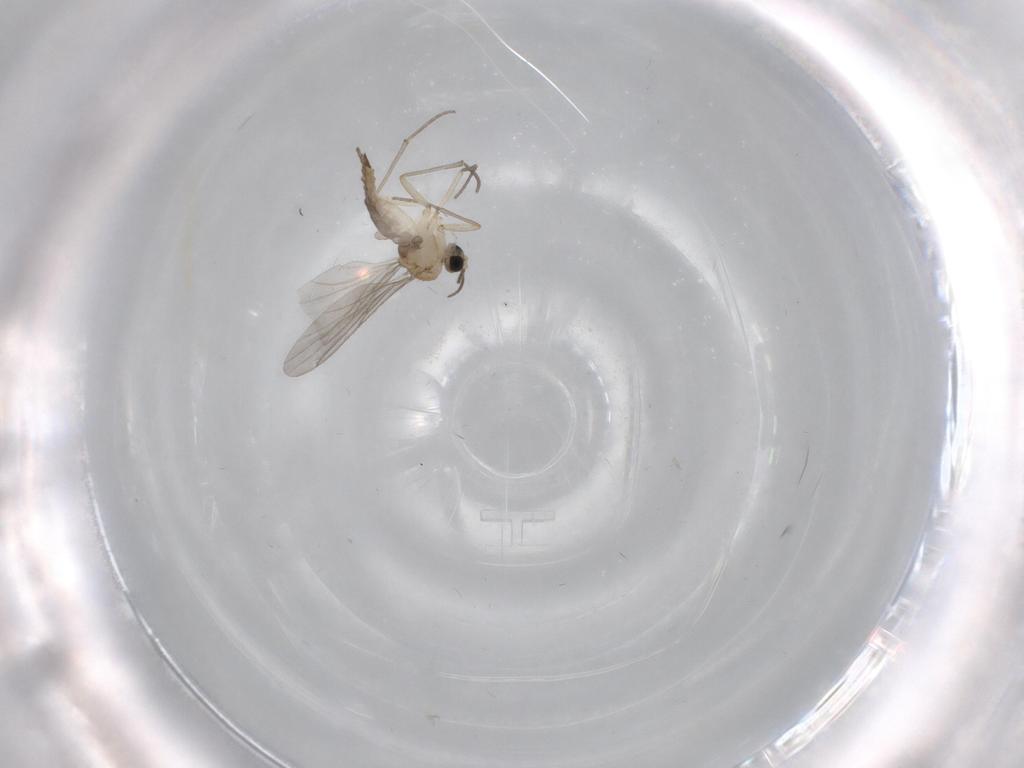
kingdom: Animalia
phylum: Arthropoda
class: Insecta
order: Diptera
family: Sciaridae
